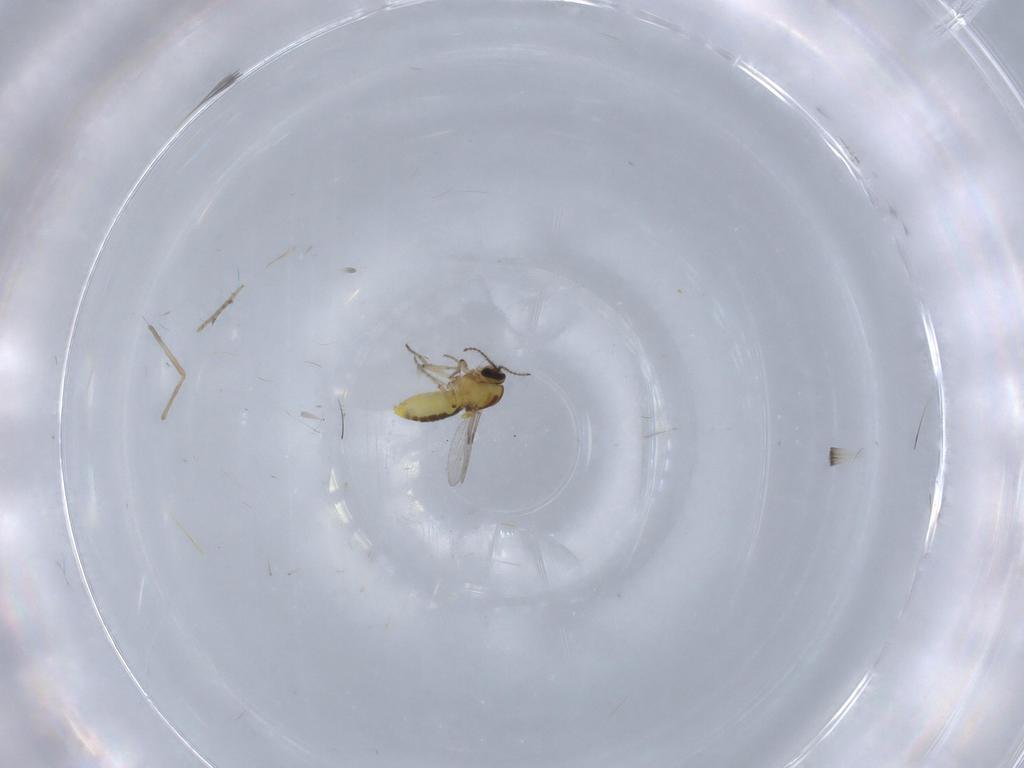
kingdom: Animalia
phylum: Arthropoda
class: Insecta
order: Diptera
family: Ceratopogonidae
